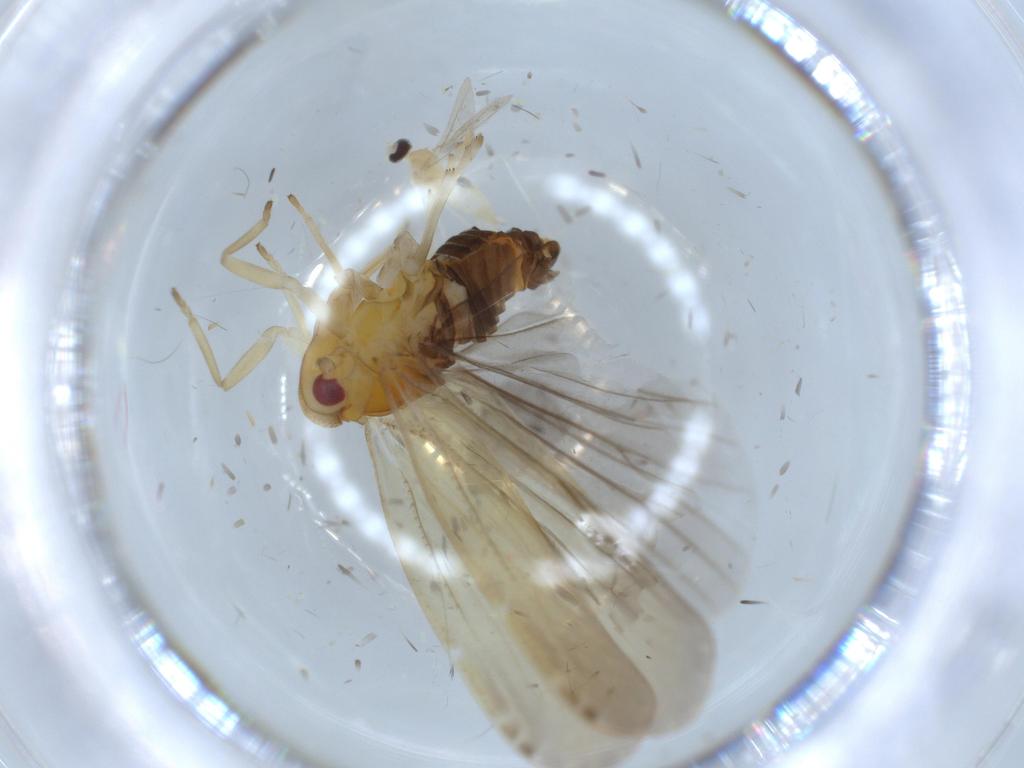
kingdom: Animalia
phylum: Arthropoda
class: Insecta
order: Diptera
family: Cecidomyiidae
